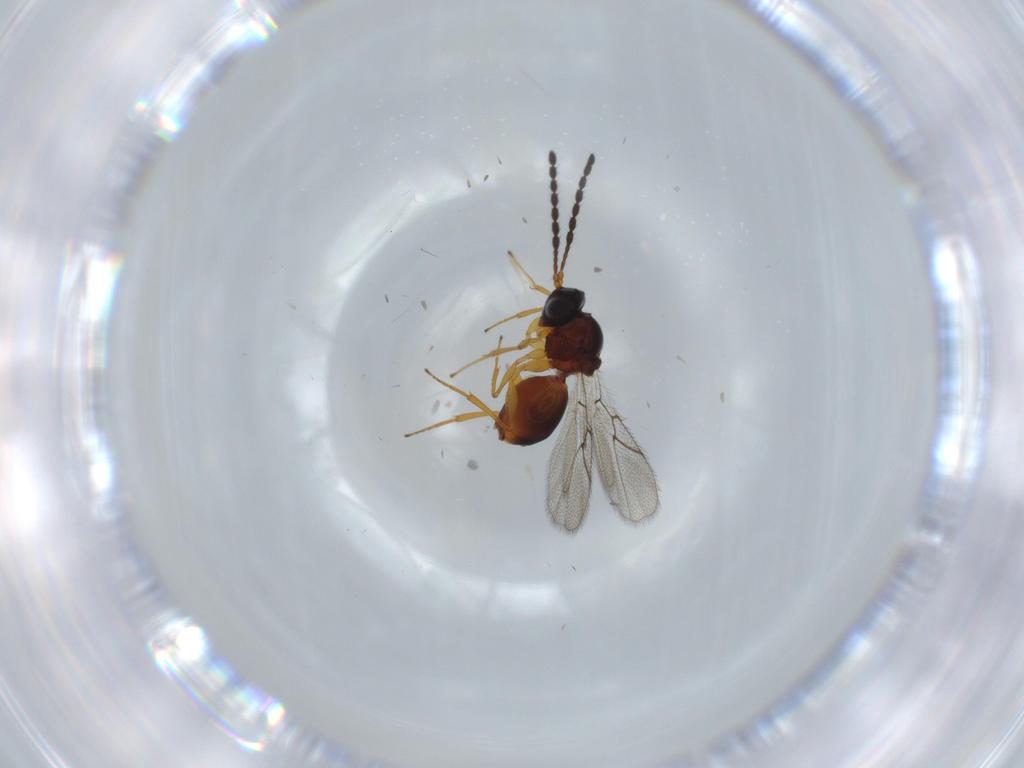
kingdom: Animalia
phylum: Arthropoda
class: Insecta
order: Hymenoptera
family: Figitidae
